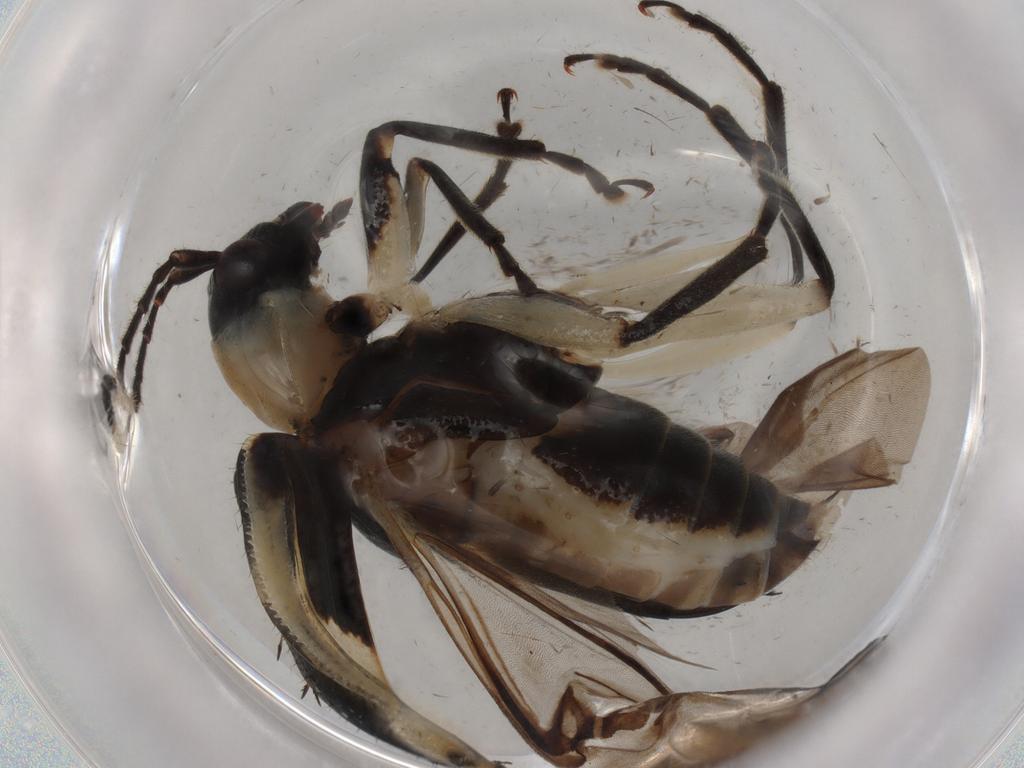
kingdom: Animalia
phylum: Arthropoda
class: Insecta
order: Coleoptera
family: Chrysomelidae
